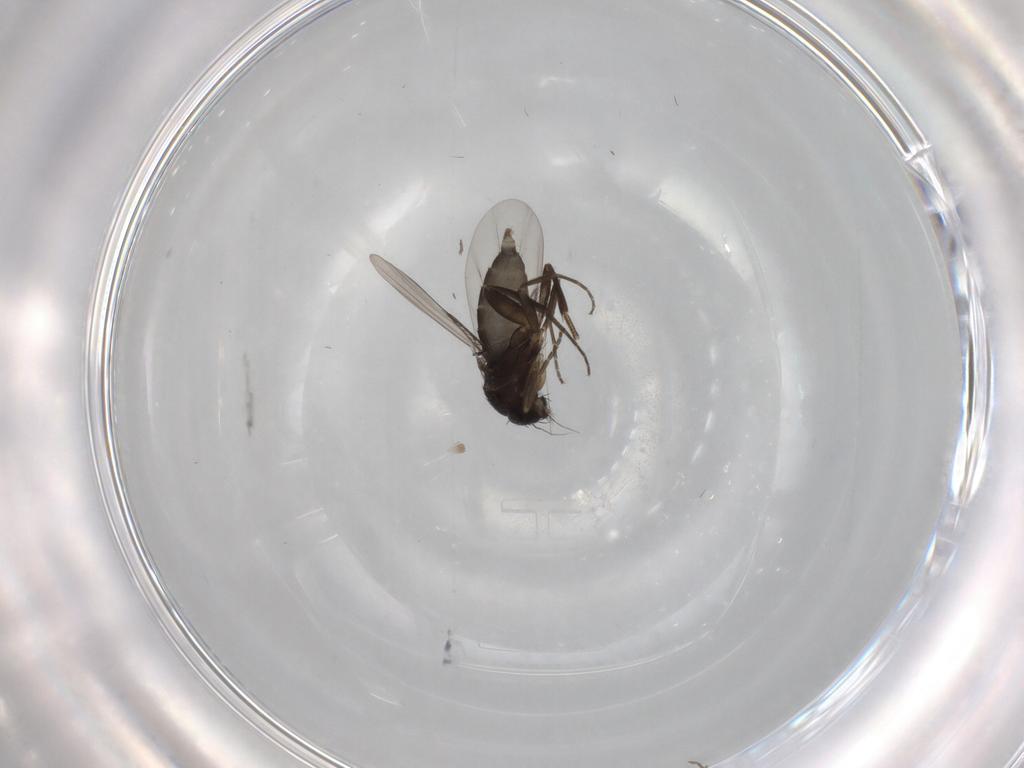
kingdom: Animalia
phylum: Arthropoda
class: Insecta
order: Diptera
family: Phoridae
